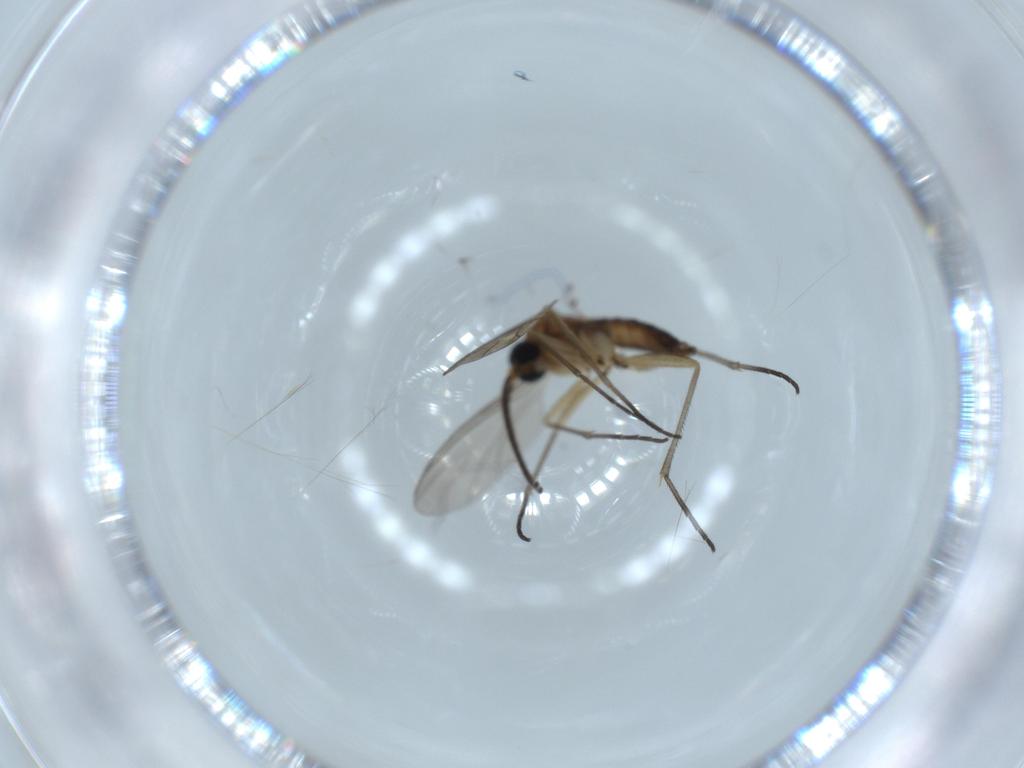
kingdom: Animalia
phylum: Arthropoda
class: Insecta
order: Diptera
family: Sciaridae
